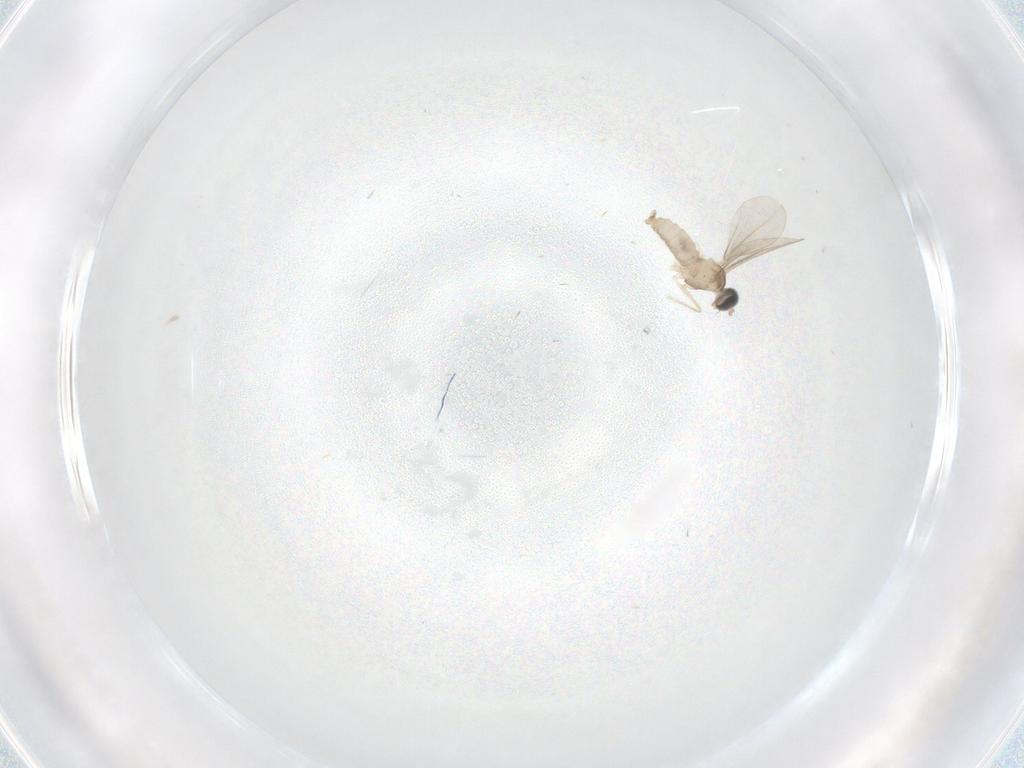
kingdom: Animalia
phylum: Arthropoda
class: Insecta
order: Diptera
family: Cecidomyiidae
